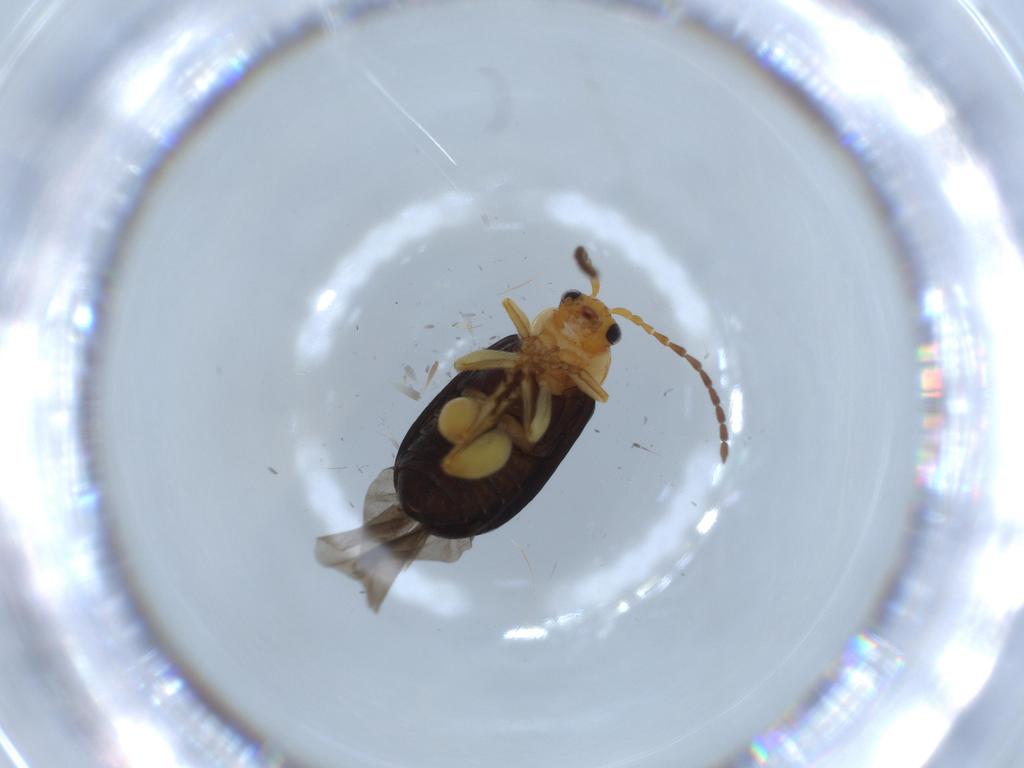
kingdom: Animalia
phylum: Arthropoda
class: Insecta
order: Coleoptera
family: Chrysomelidae
